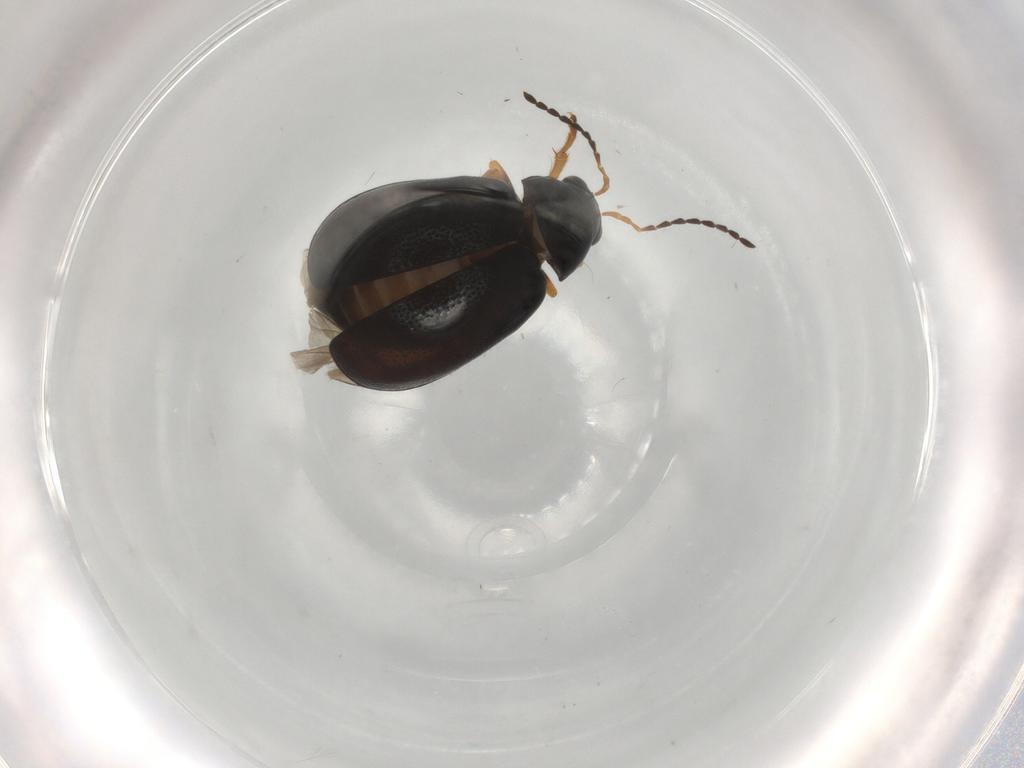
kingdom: Animalia
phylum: Arthropoda
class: Insecta
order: Coleoptera
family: Chrysomelidae
